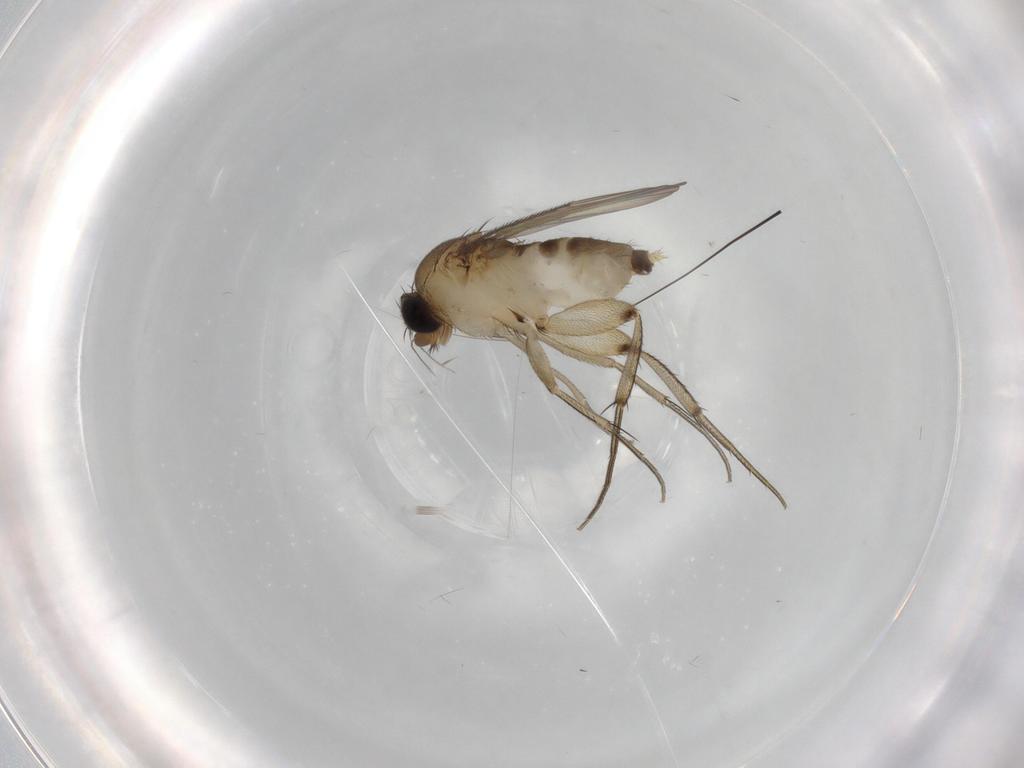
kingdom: Animalia
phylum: Arthropoda
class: Insecta
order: Diptera
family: Phoridae
